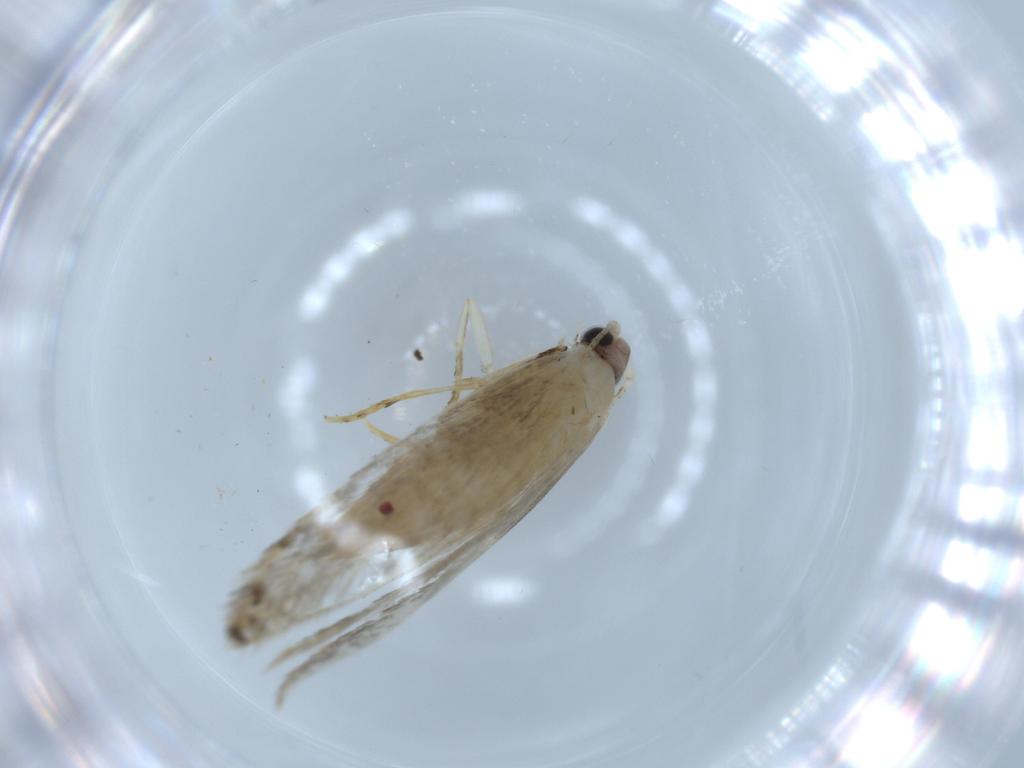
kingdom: Animalia
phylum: Arthropoda
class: Insecta
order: Lepidoptera
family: Tineidae
